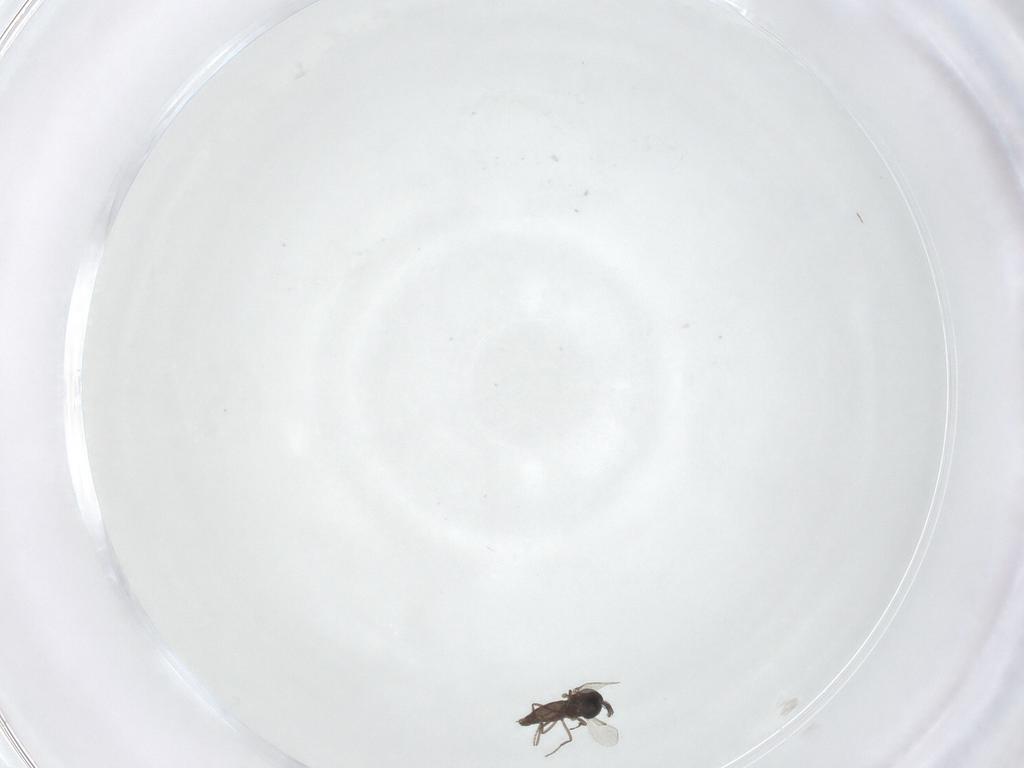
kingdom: Animalia
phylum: Arthropoda
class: Insecta
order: Diptera
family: Ceratopogonidae
